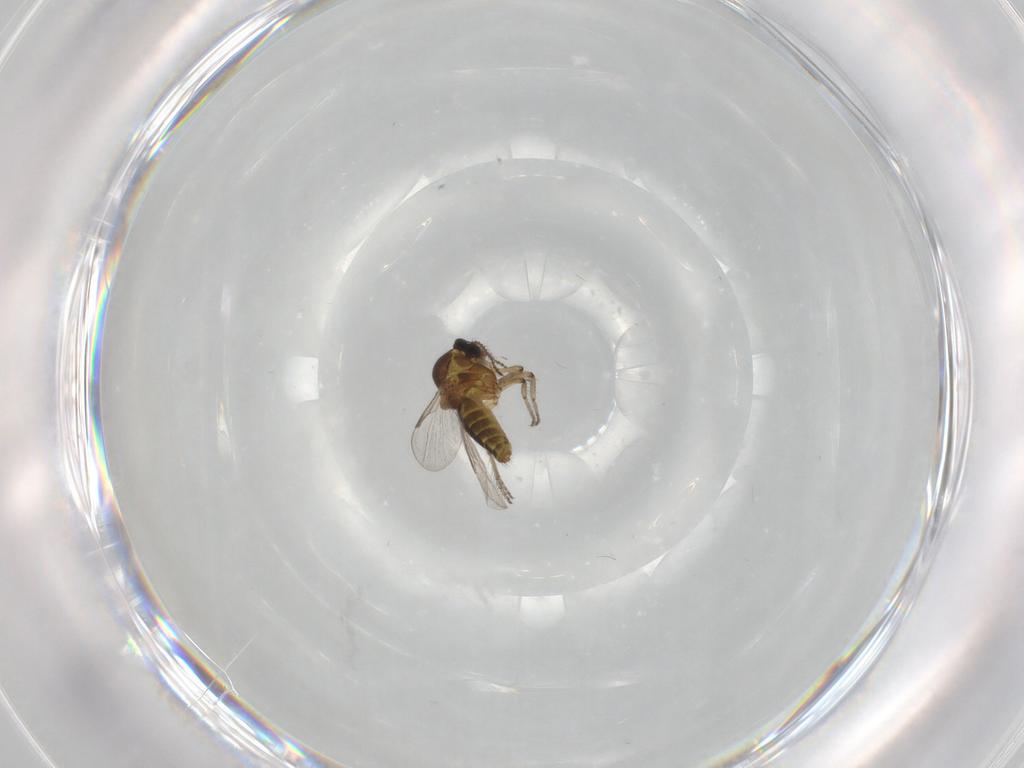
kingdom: Animalia
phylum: Arthropoda
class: Insecta
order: Diptera
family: Ceratopogonidae
